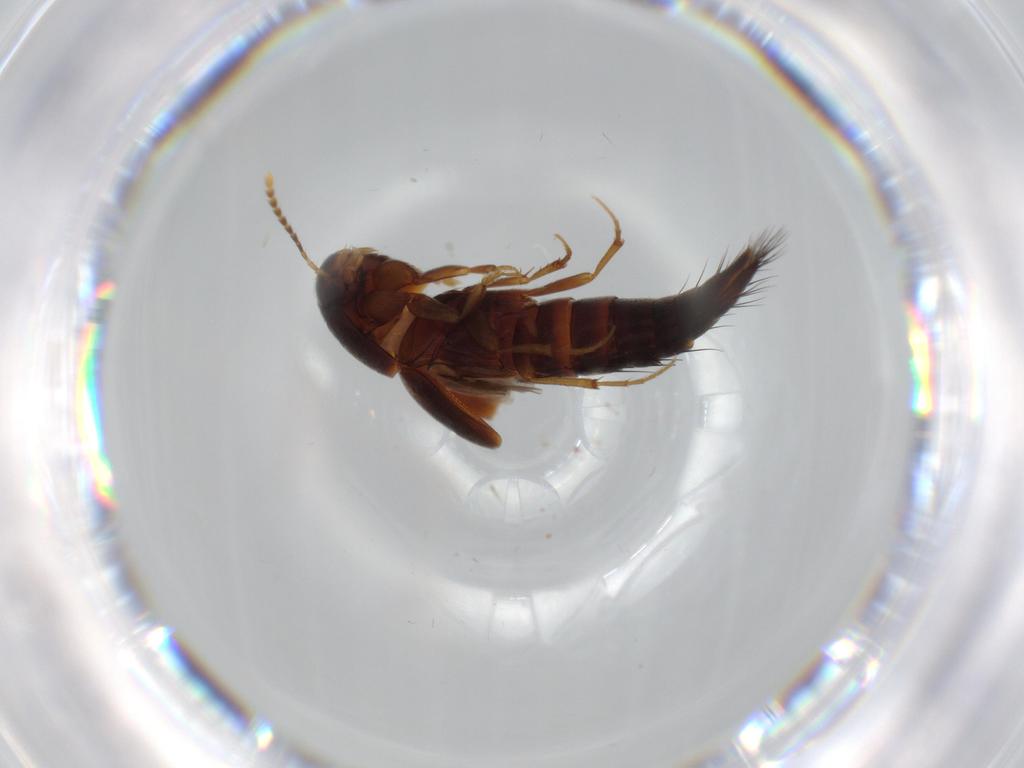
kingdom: Animalia
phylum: Arthropoda
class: Insecta
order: Coleoptera
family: Staphylinidae
